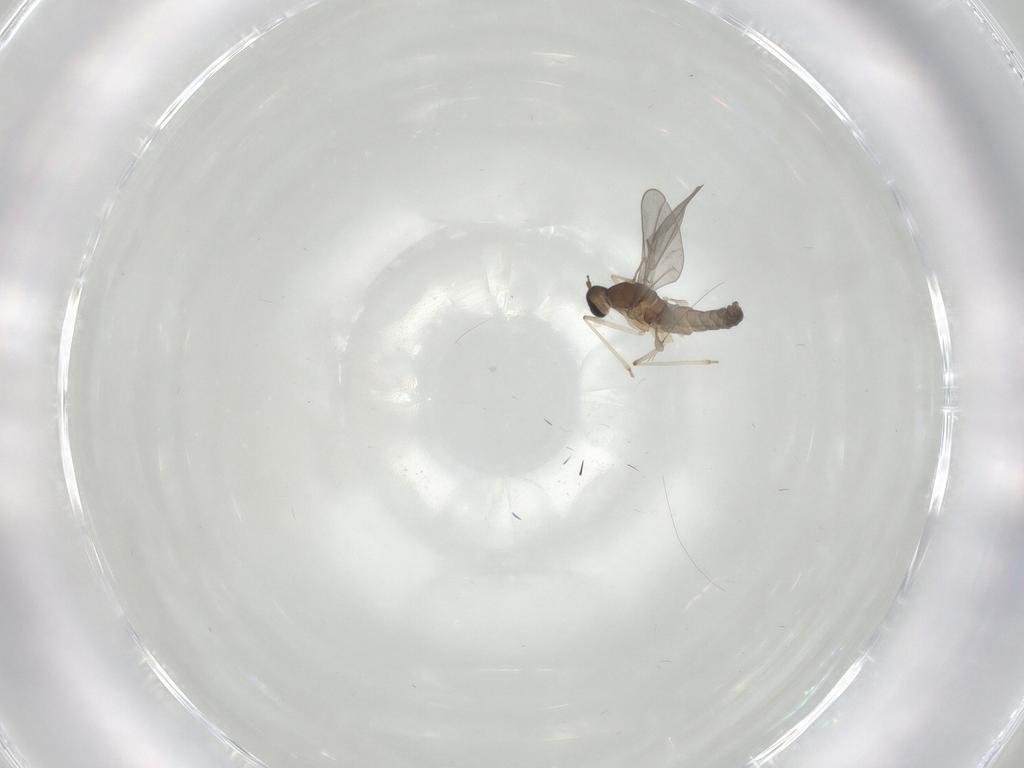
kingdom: Animalia
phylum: Arthropoda
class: Insecta
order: Diptera
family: Cecidomyiidae
